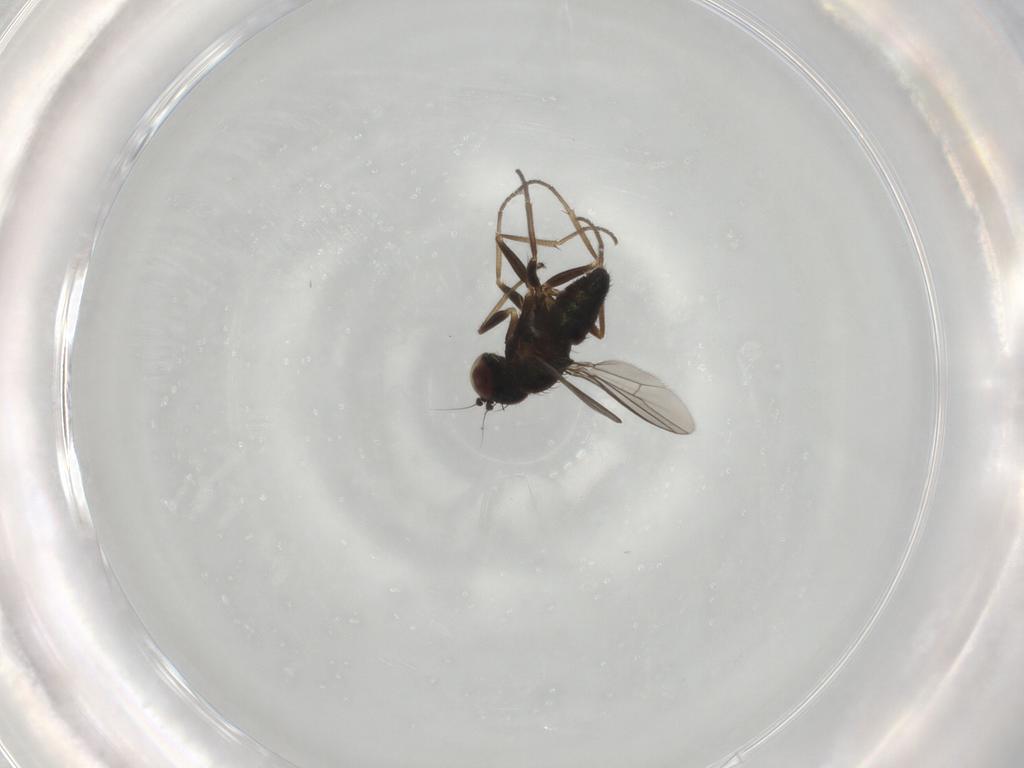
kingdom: Animalia
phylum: Arthropoda
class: Insecta
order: Diptera
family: Dolichopodidae
